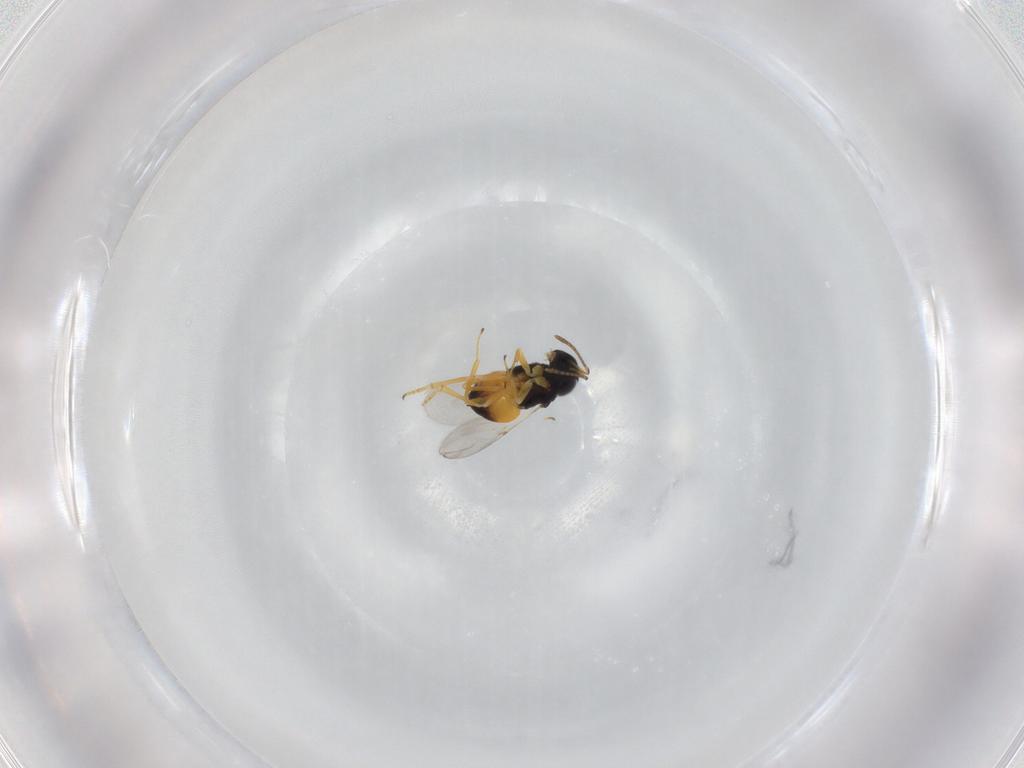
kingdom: Animalia
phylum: Arthropoda
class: Insecta
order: Hymenoptera
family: Encyrtidae
